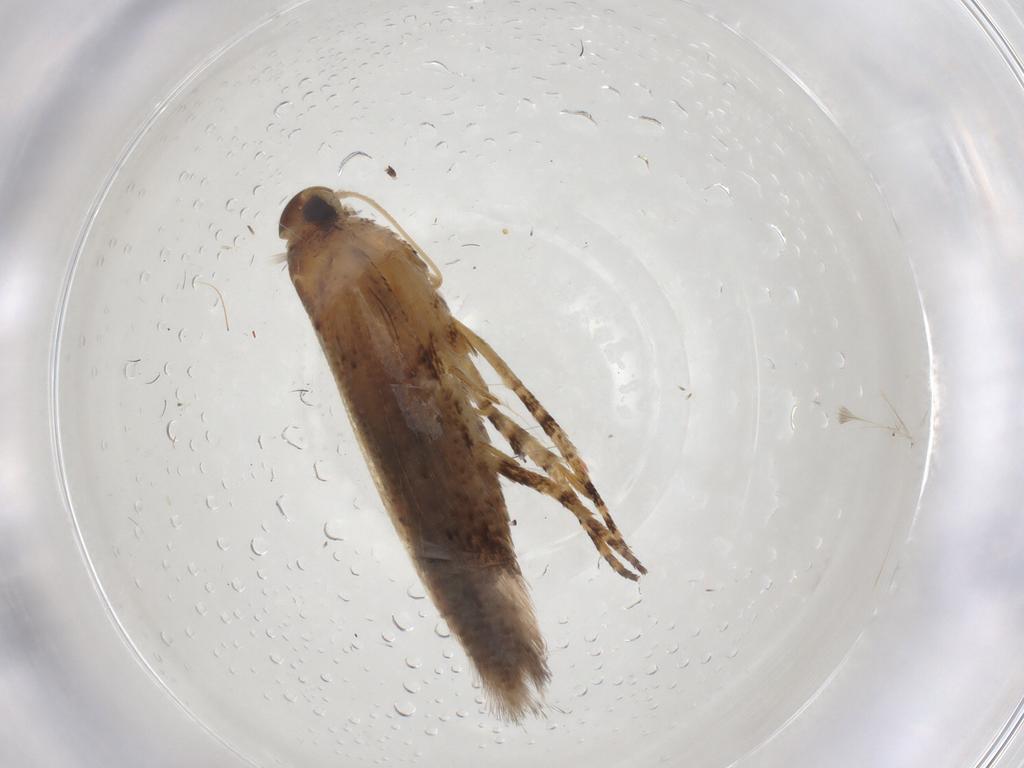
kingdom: Animalia
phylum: Arthropoda
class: Insecta
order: Lepidoptera
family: Gelechiidae
